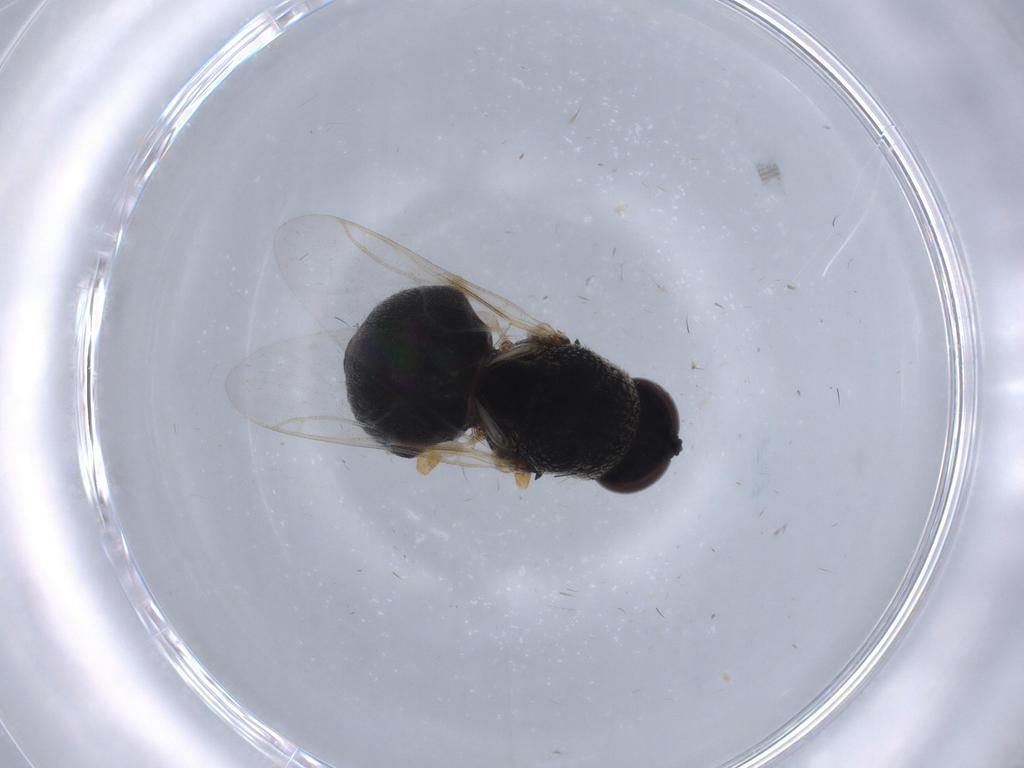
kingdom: Animalia
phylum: Arthropoda
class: Insecta
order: Diptera
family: Stratiomyidae
